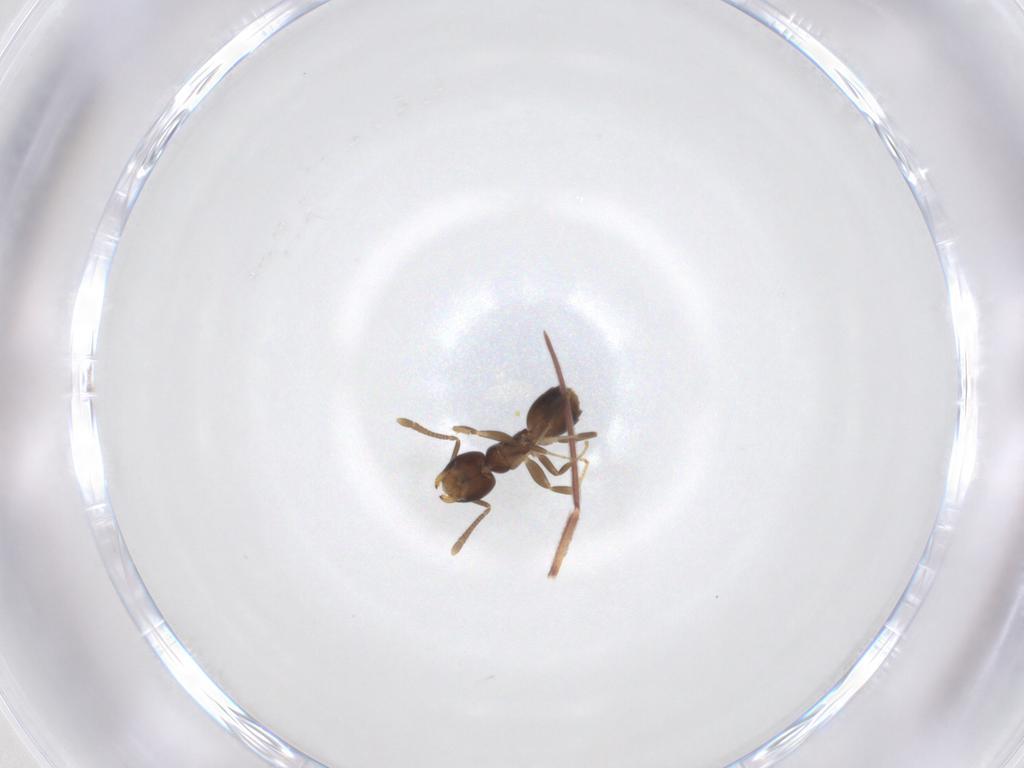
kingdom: Animalia
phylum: Arthropoda
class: Insecta
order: Hymenoptera
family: Formicidae
